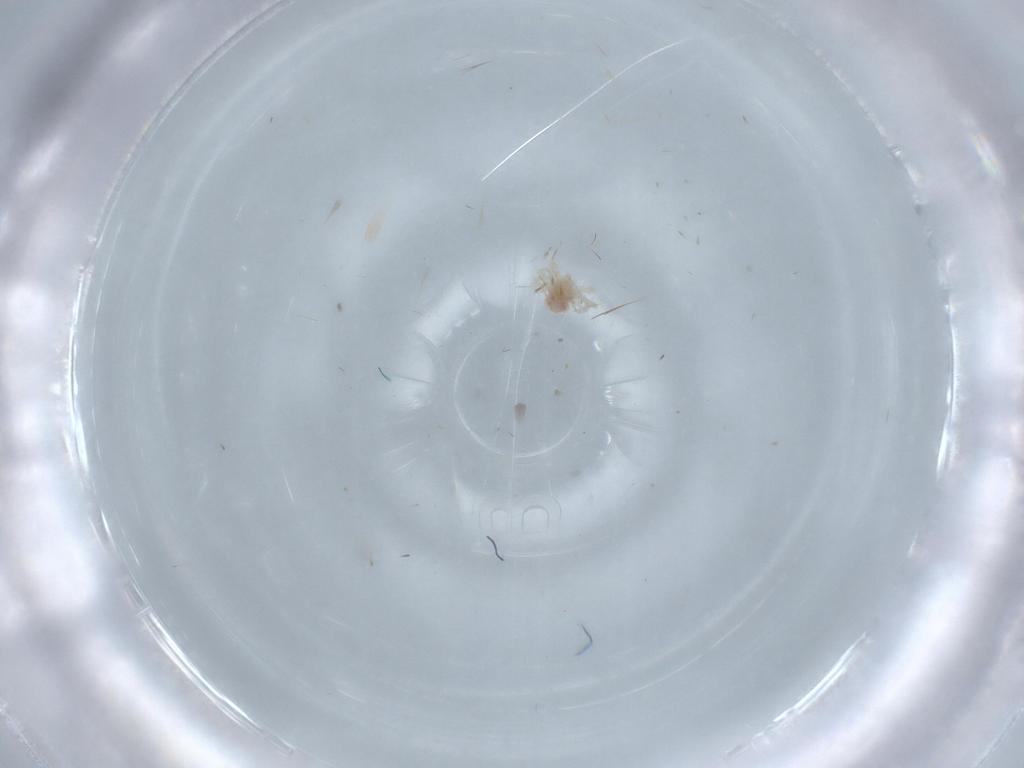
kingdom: Animalia
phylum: Arthropoda
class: Arachnida
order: Trombidiformes
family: Anystidae
